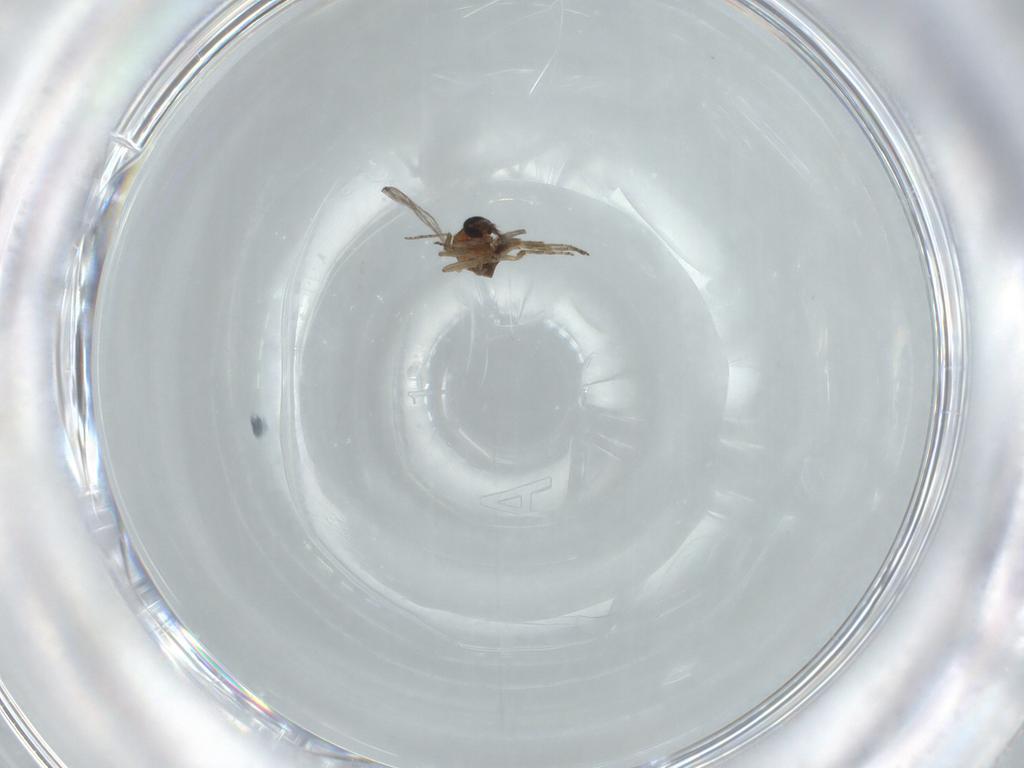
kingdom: Animalia
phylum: Arthropoda
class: Insecta
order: Diptera
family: Ceratopogonidae
